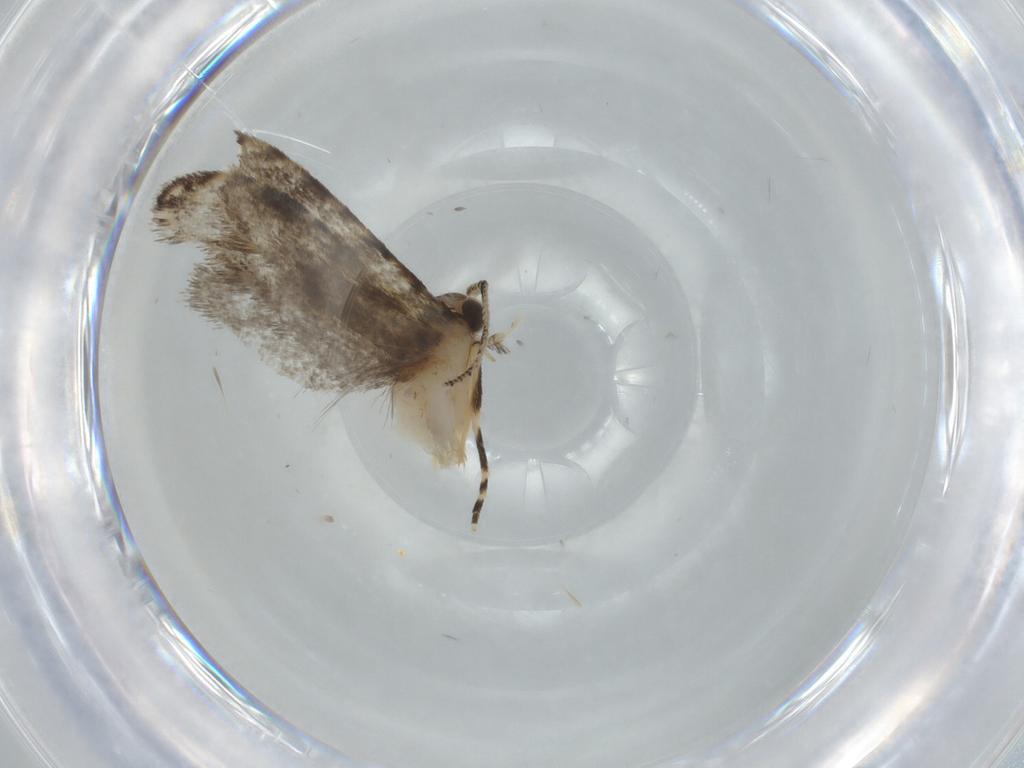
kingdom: Animalia
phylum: Arthropoda
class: Insecta
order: Lepidoptera
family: Tineidae
